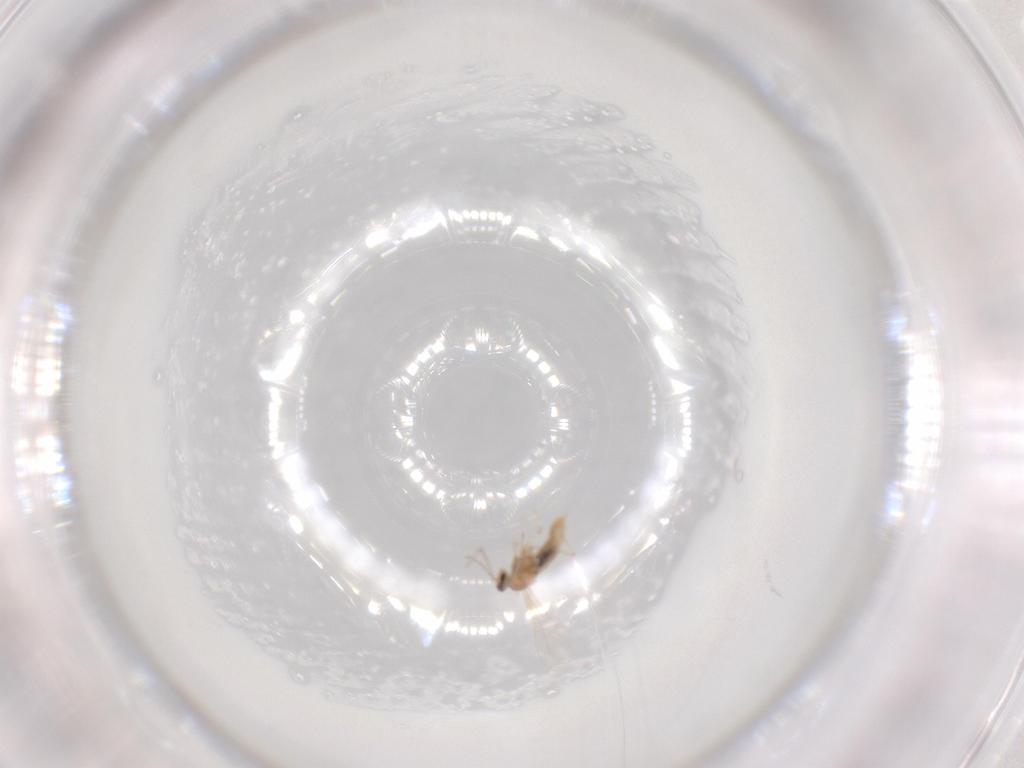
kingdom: Animalia
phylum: Arthropoda
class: Insecta
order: Diptera
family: Cecidomyiidae
